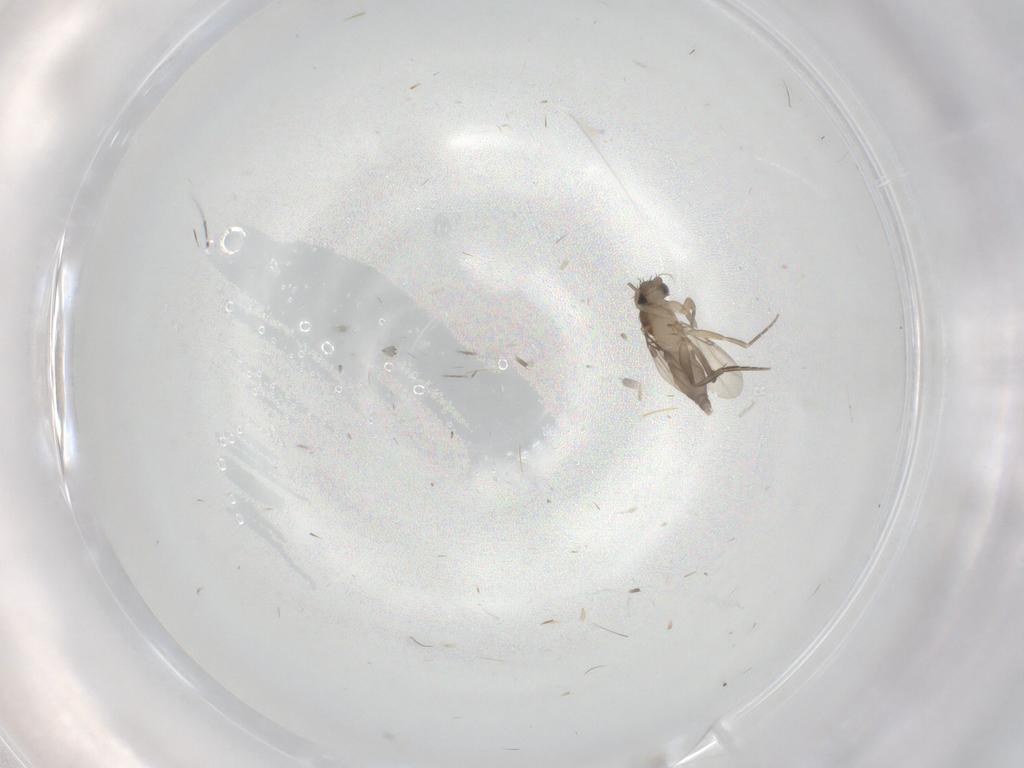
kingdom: Animalia
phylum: Arthropoda
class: Insecta
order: Diptera
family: Phoridae
